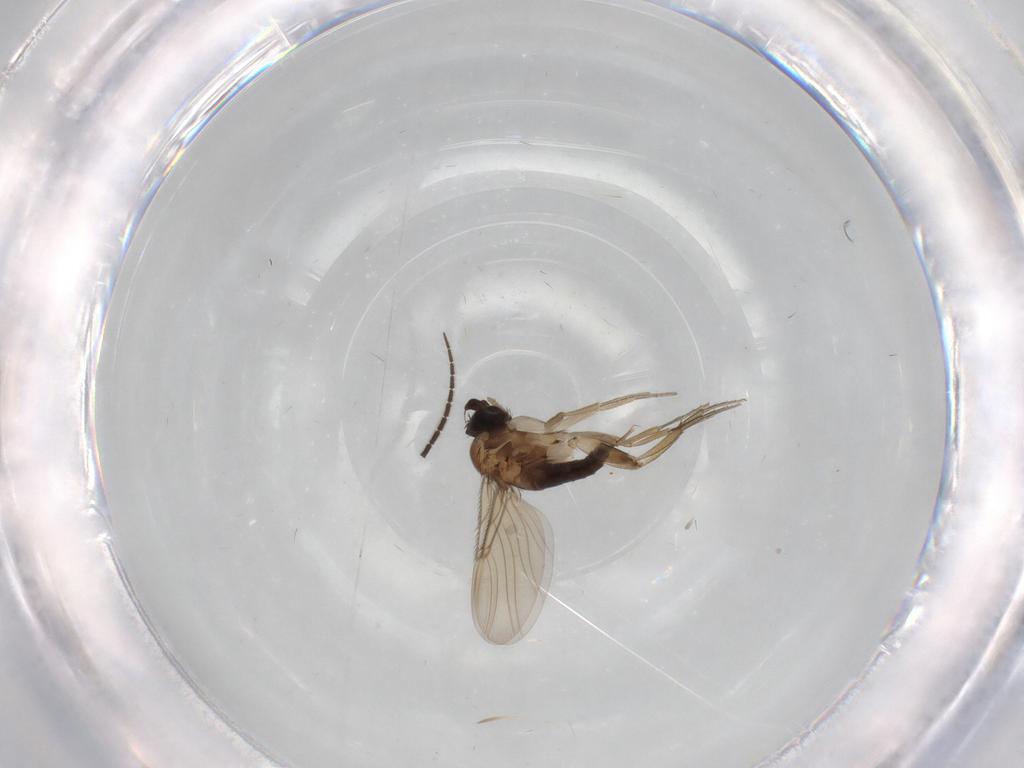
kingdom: Animalia
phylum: Arthropoda
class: Insecta
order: Diptera
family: Phoridae
